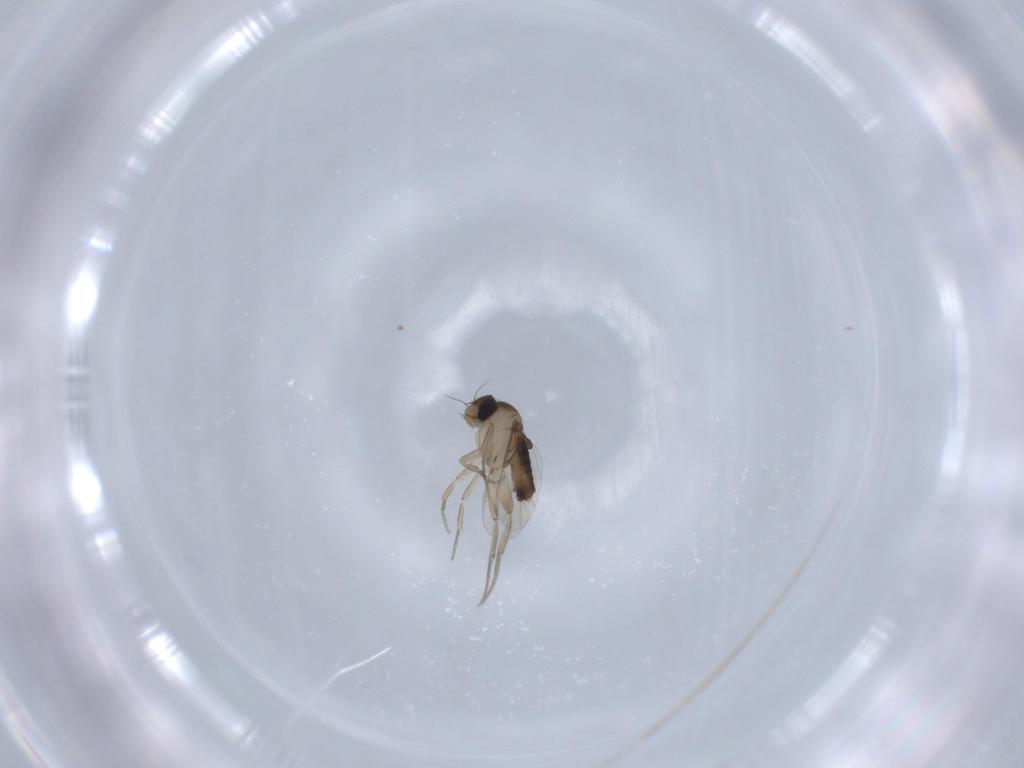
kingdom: Animalia
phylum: Arthropoda
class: Insecta
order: Diptera
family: Phoridae
